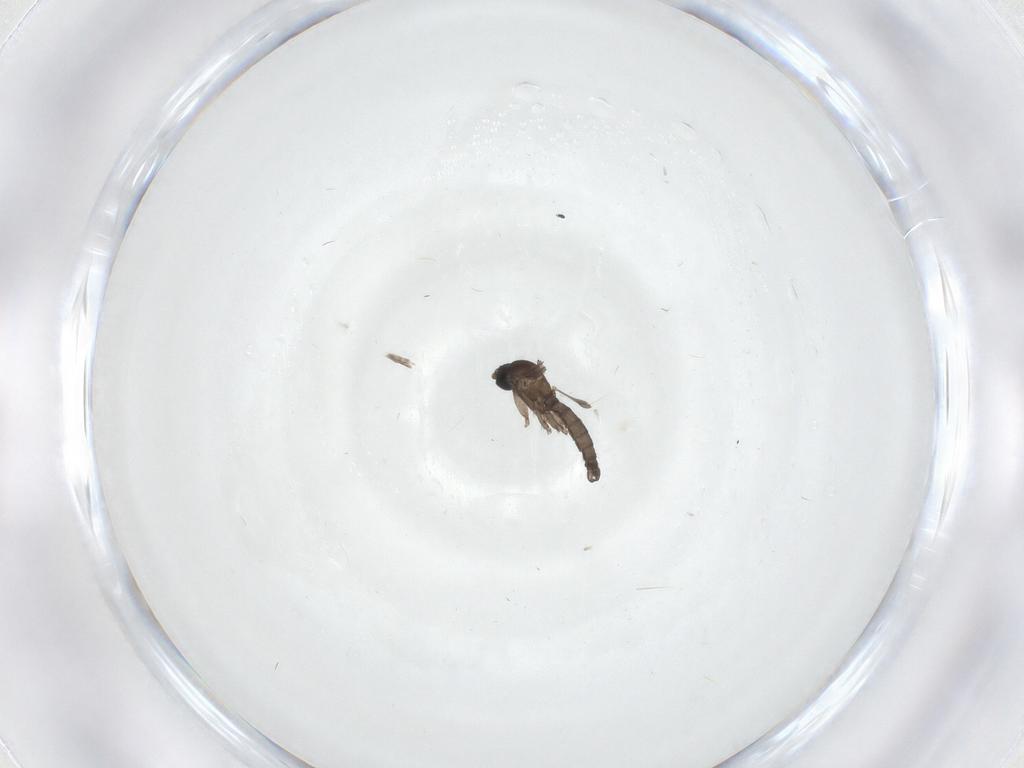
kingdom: Animalia
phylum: Arthropoda
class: Insecta
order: Diptera
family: Sciaridae
